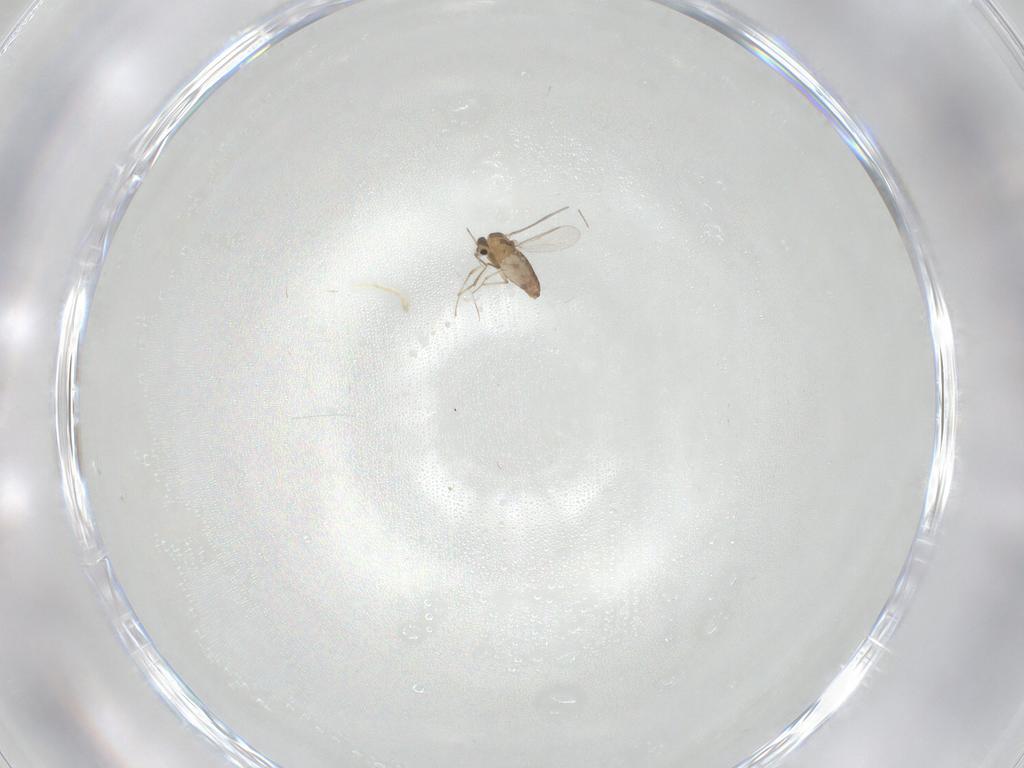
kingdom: Animalia
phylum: Arthropoda
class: Insecta
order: Diptera
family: Chironomidae
